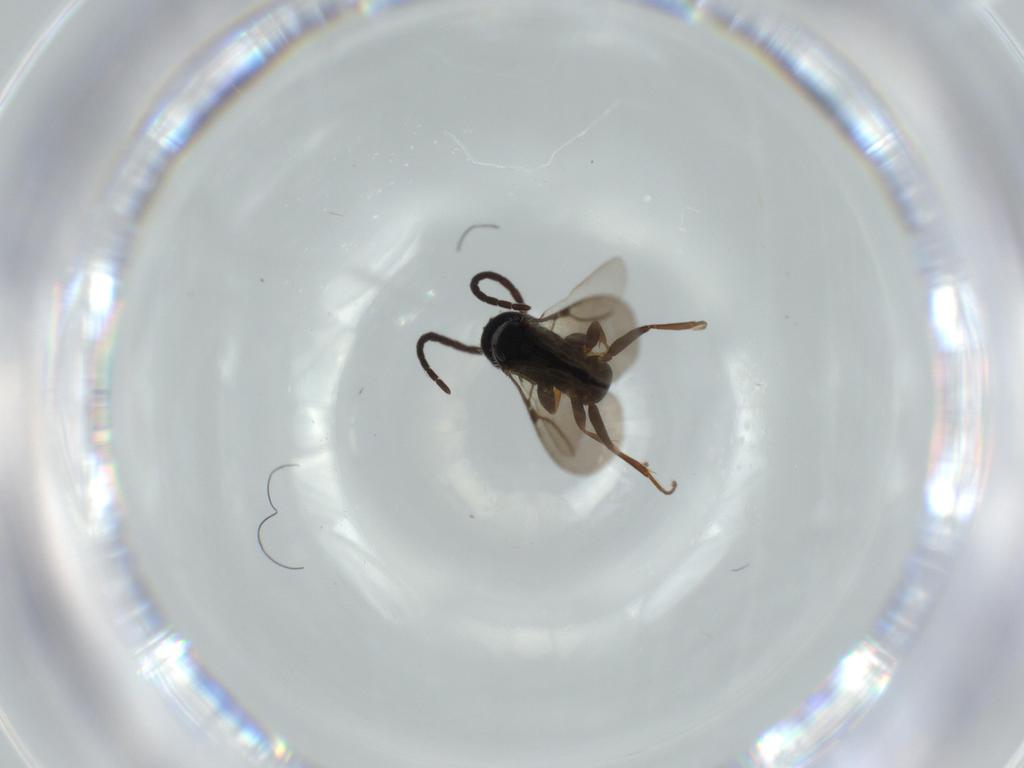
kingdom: Animalia
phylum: Arthropoda
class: Insecta
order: Hymenoptera
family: Bethylidae
